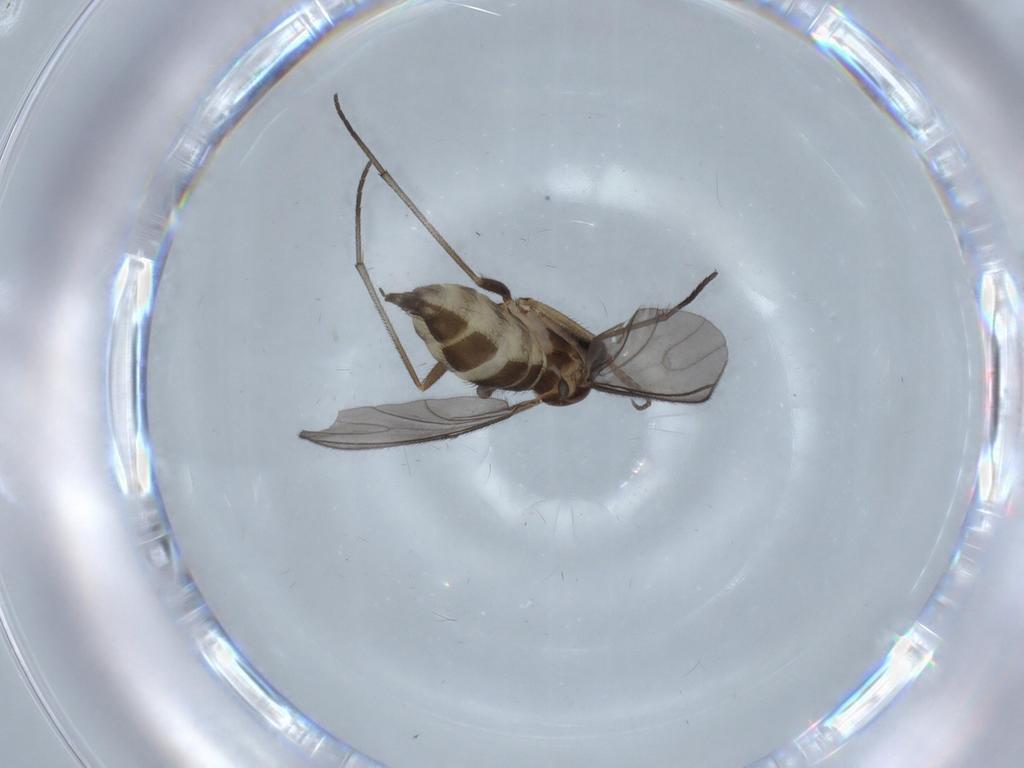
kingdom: Animalia
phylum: Arthropoda
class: Insecta
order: Diptera
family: Sciaridae
